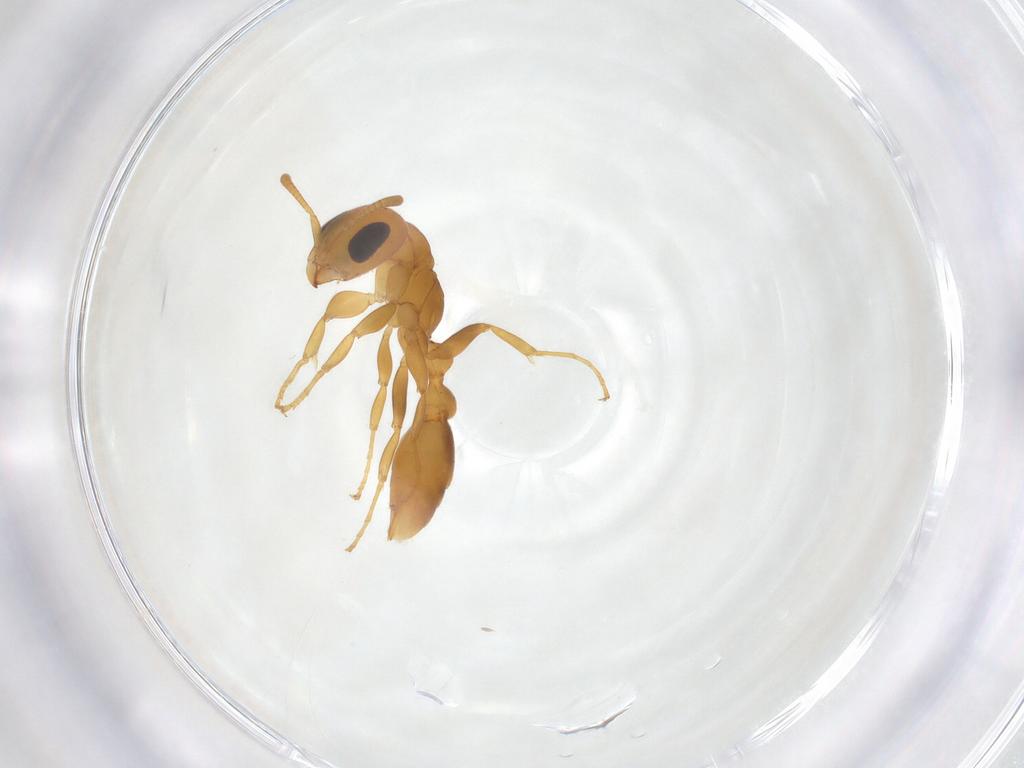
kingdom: Animalia
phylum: Arthropoda
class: Insecta
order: Hymenoptera
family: Formicidae
